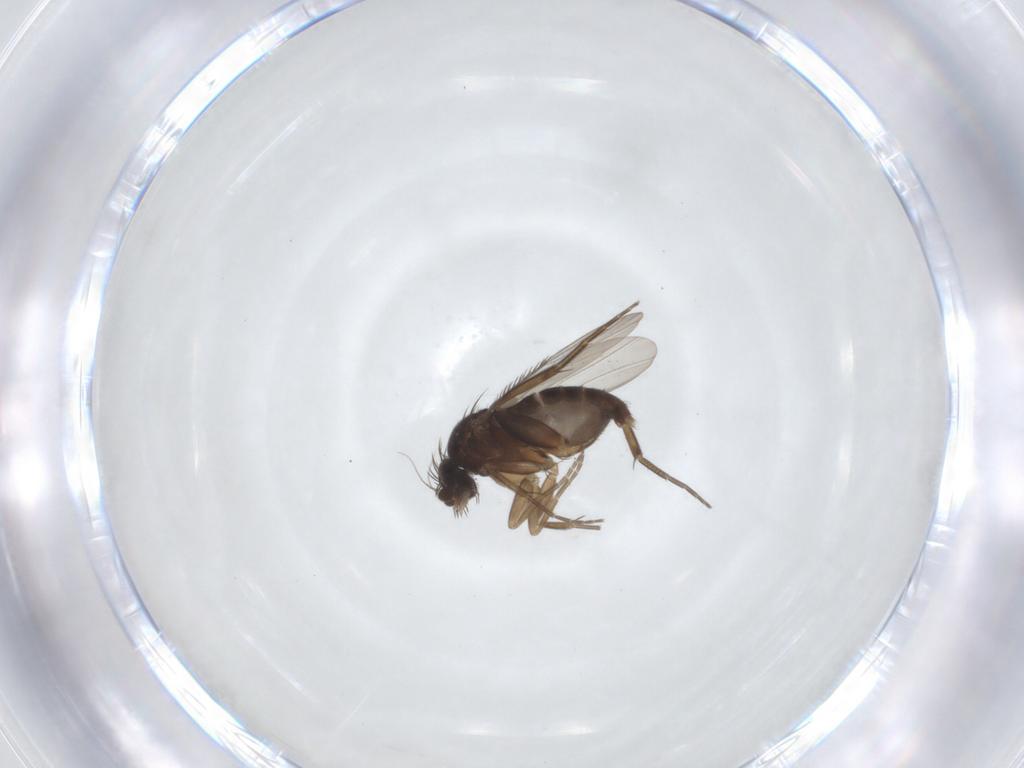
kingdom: Animalia
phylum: Arthropoda
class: Insecta
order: Diptera
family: Phoridae
